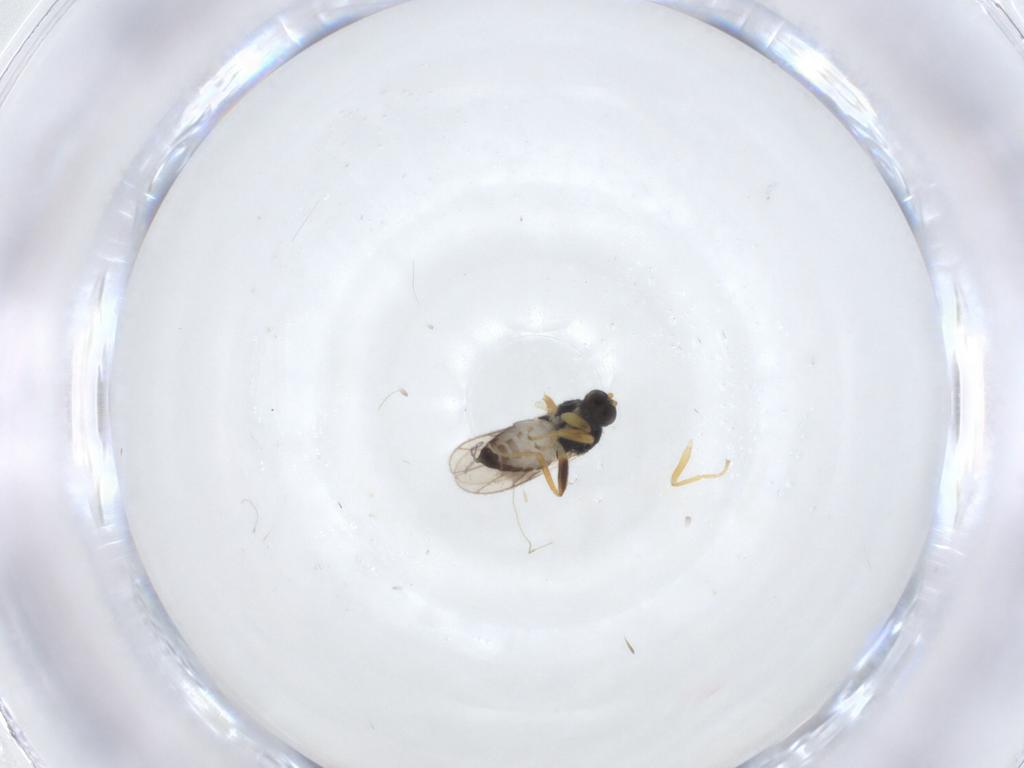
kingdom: Animalia
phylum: Arthropoda
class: Insecta
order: Diptera
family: Hybotidae
